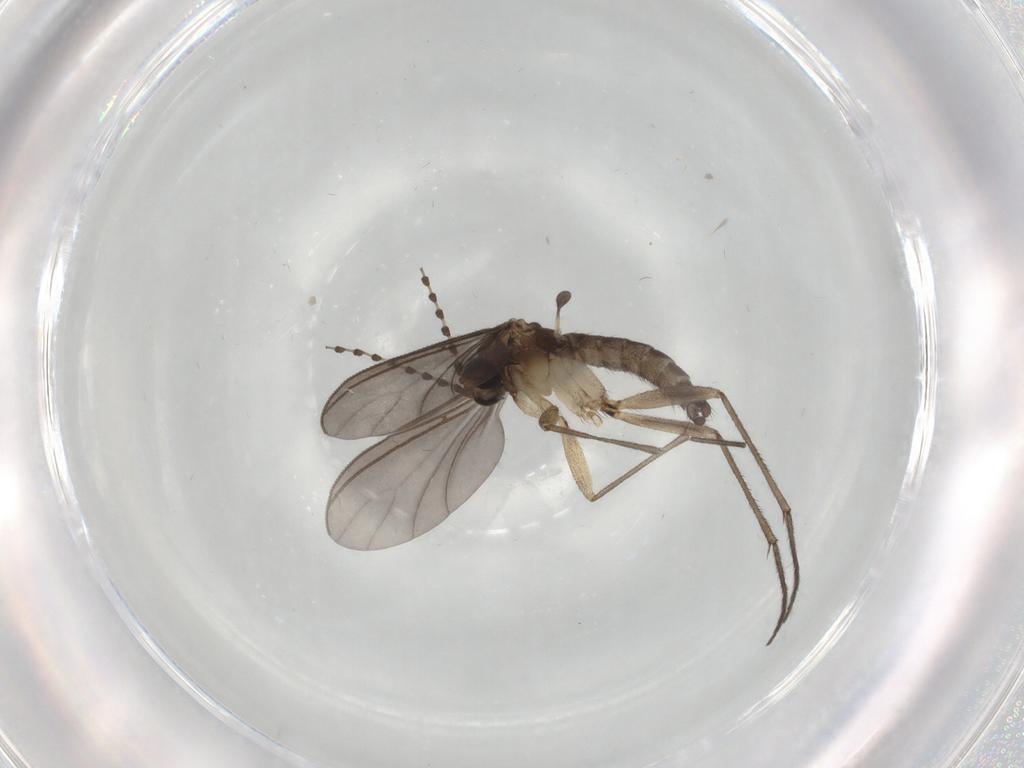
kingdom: Animalia
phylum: Arthropoda
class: Insecta
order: Diptera
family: Sciaridae
